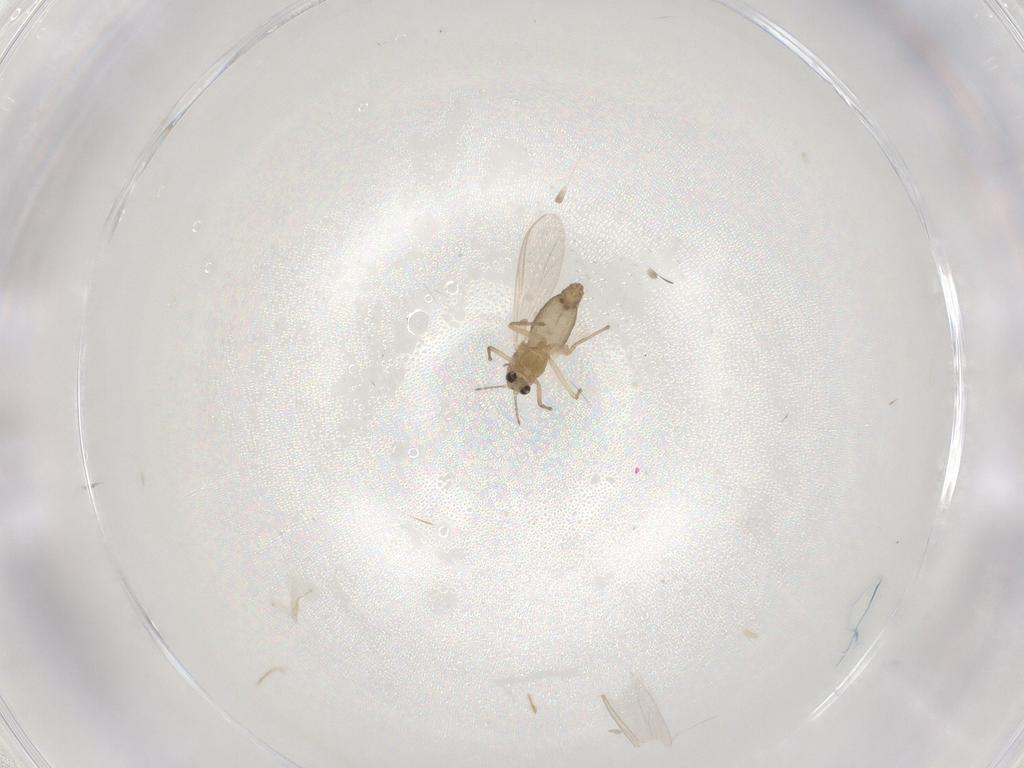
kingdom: Animalia
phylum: Arthropoda
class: Insecta
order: Diptera
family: Chironomidae
